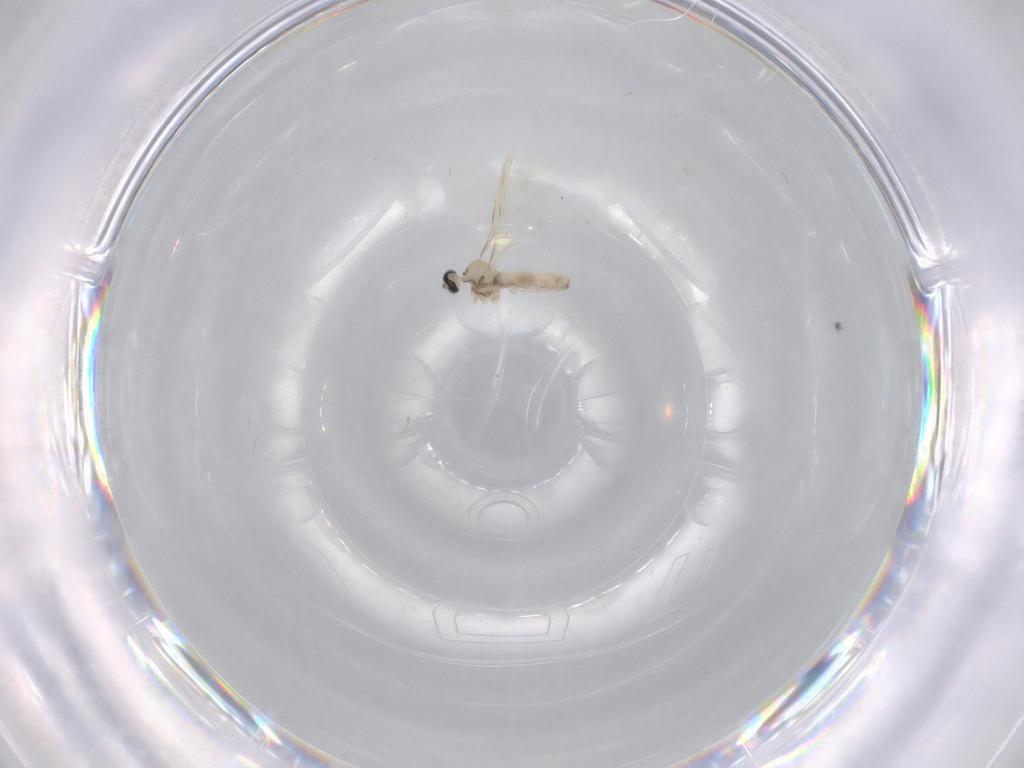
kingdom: Animalia
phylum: Arthropoda
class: Insecta
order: Diptera
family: Cecidomyiidae
